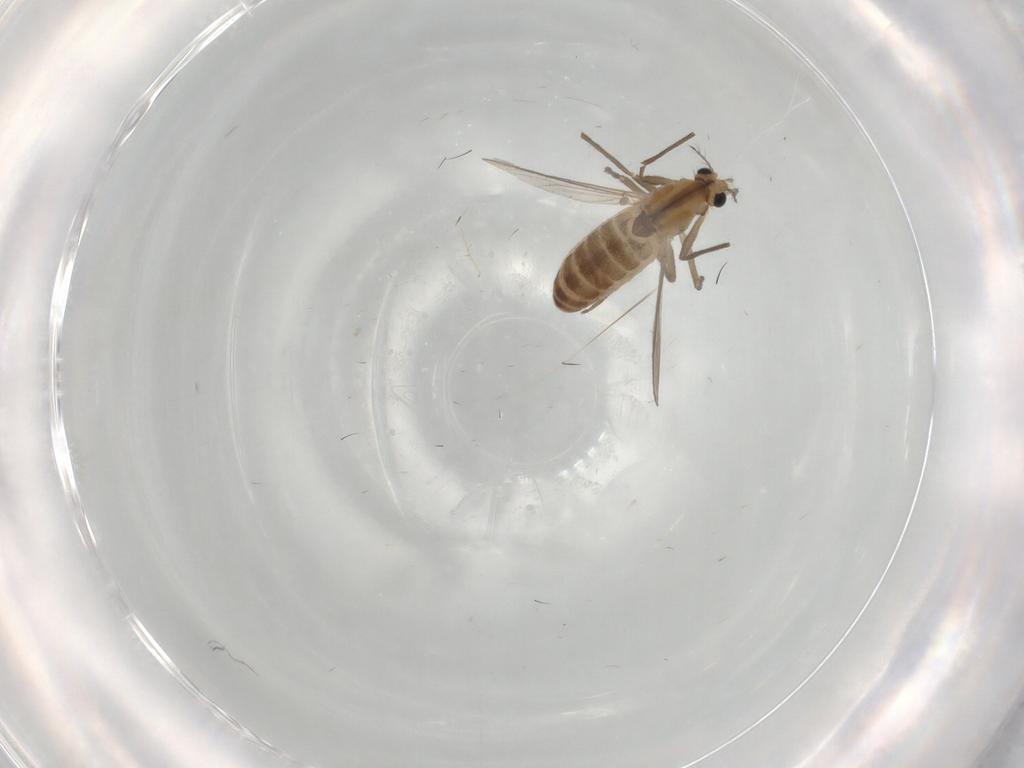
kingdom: Animalia
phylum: Arthropoda
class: Insecta
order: Diptera
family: Chironomidae
